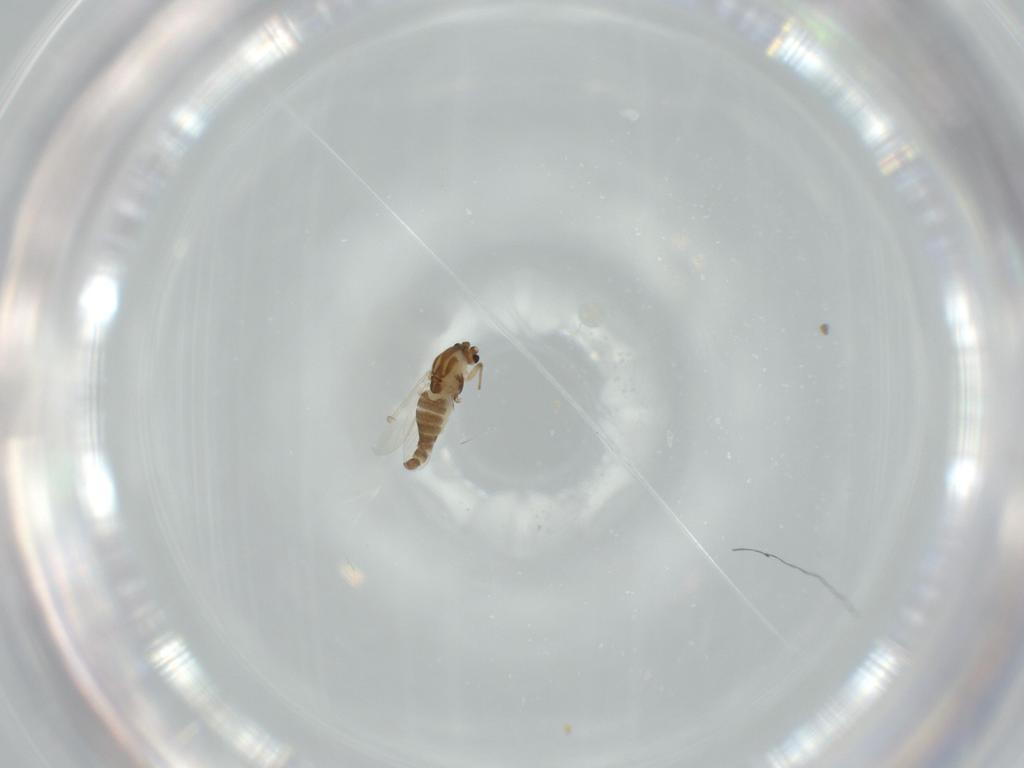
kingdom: Animalia
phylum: Arthropoda
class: Insecta
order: Diptera
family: Chironomidae
